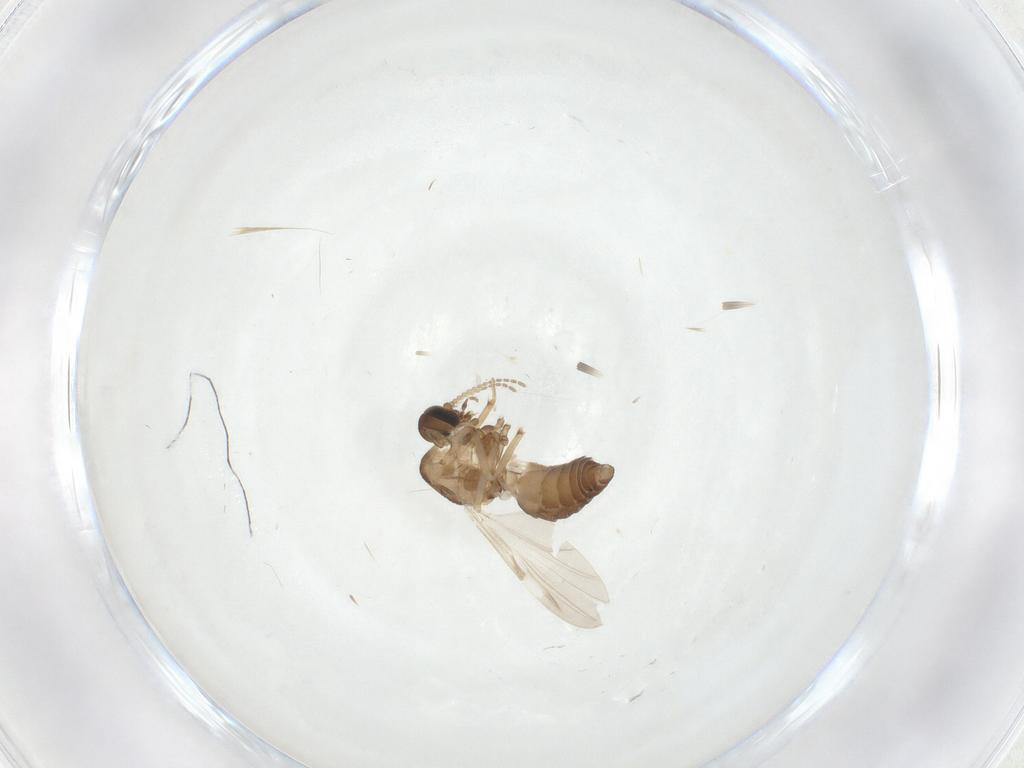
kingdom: Animalia
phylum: Arthropoda
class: Insecta
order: Diptera
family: Ceratopogonidae
